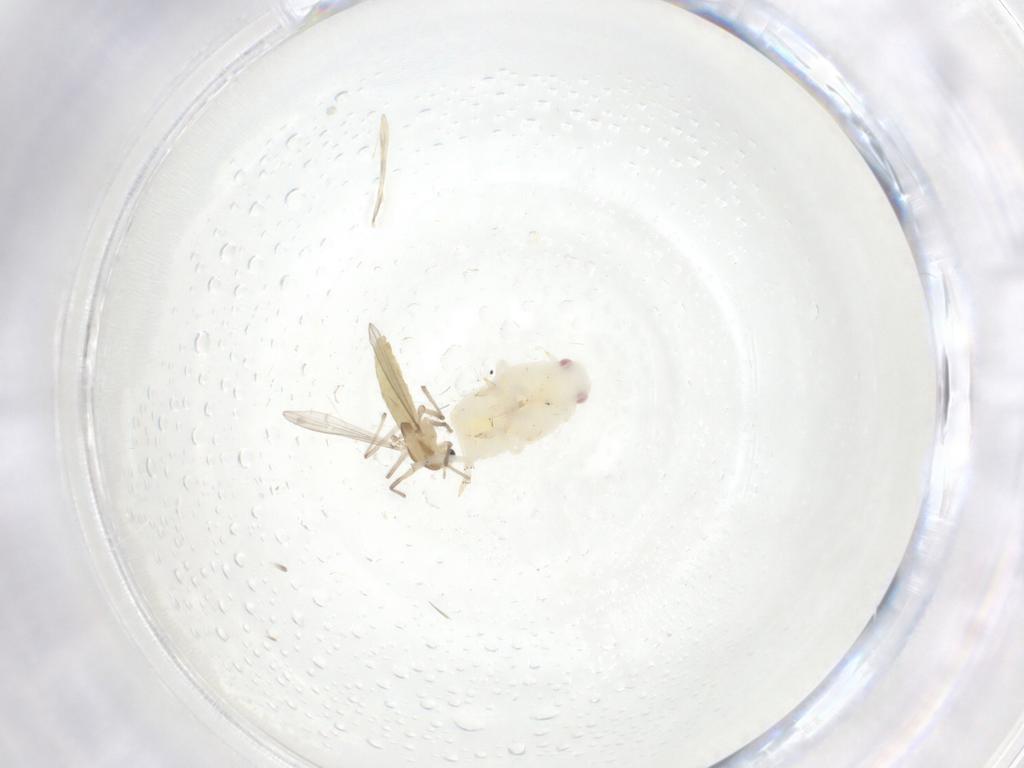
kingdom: Animalia
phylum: Arthropoda
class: Insecta
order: Hemiptera
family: Flatidae
